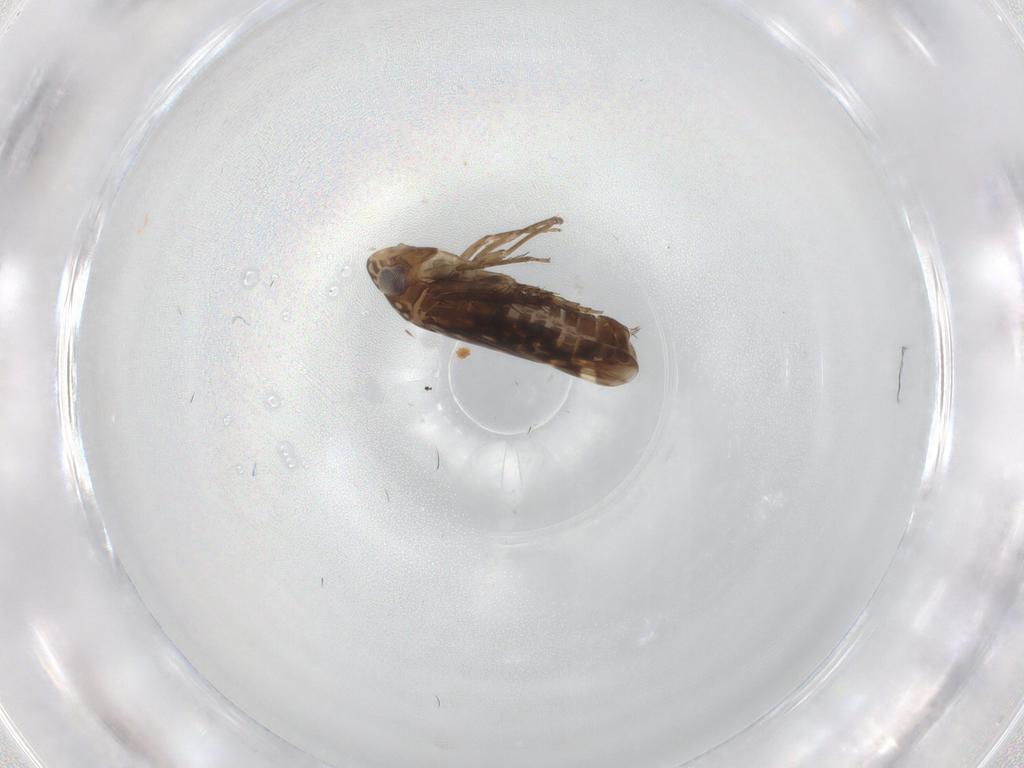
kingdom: Animalia
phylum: Arthropoda
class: Insecta
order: Hemiptera
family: Cicadellidae
